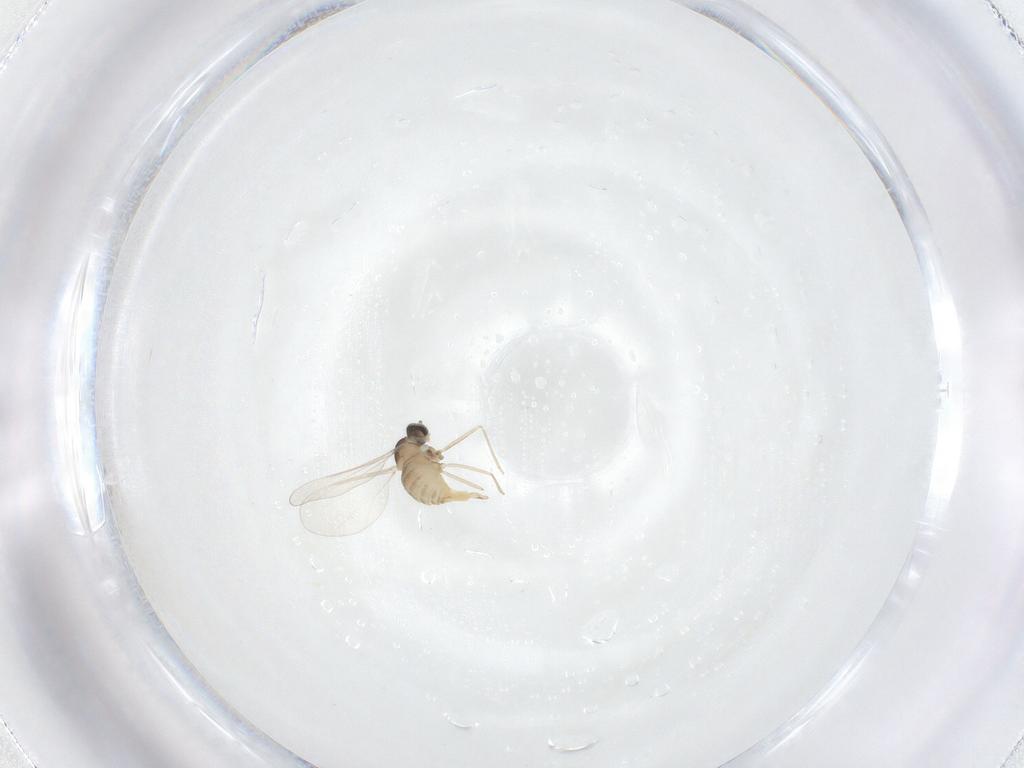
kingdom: Animalia
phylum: Arthropoda
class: Insecta
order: Diptera
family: Cecidomyiidae
